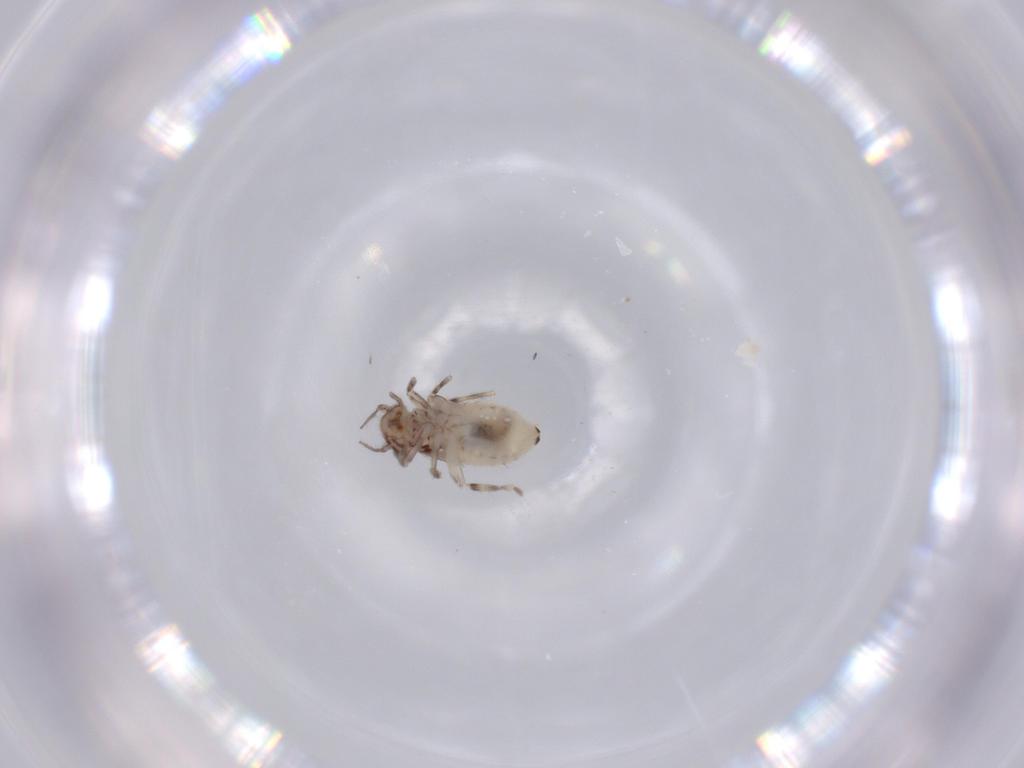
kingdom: Animalia
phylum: Arthropoda
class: Insecta
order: Psocodea
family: Lepidopsocidae
